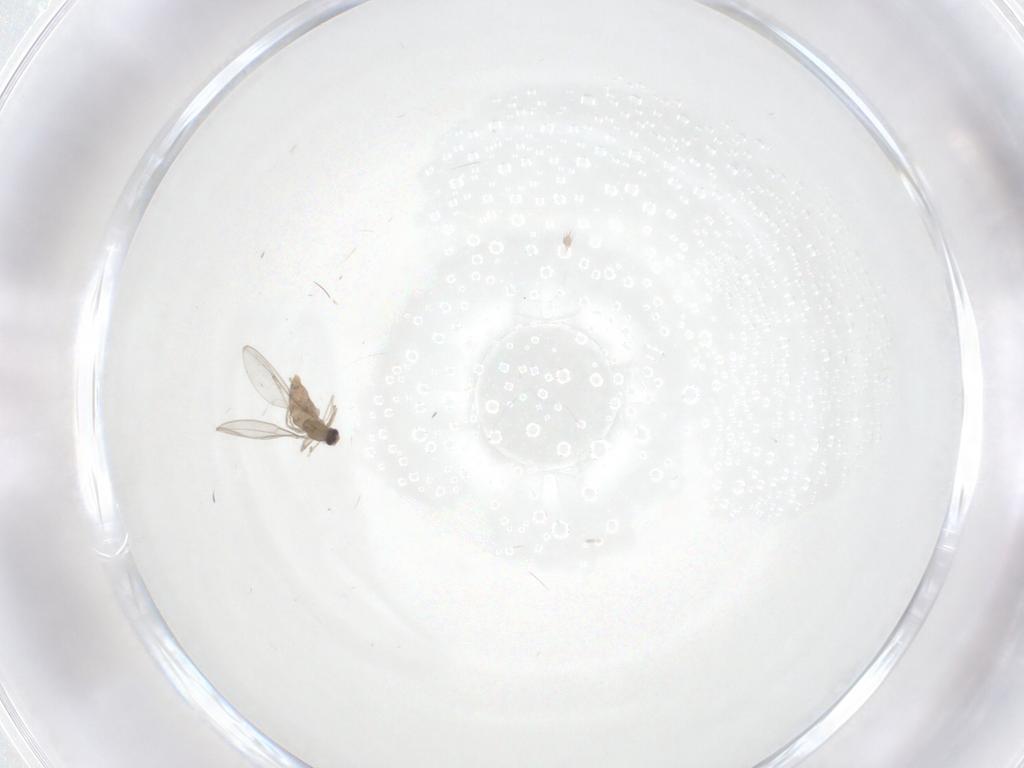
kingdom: Animalia
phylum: Arthropoda
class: Insecta
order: Diptera
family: Cecidomyiidae
